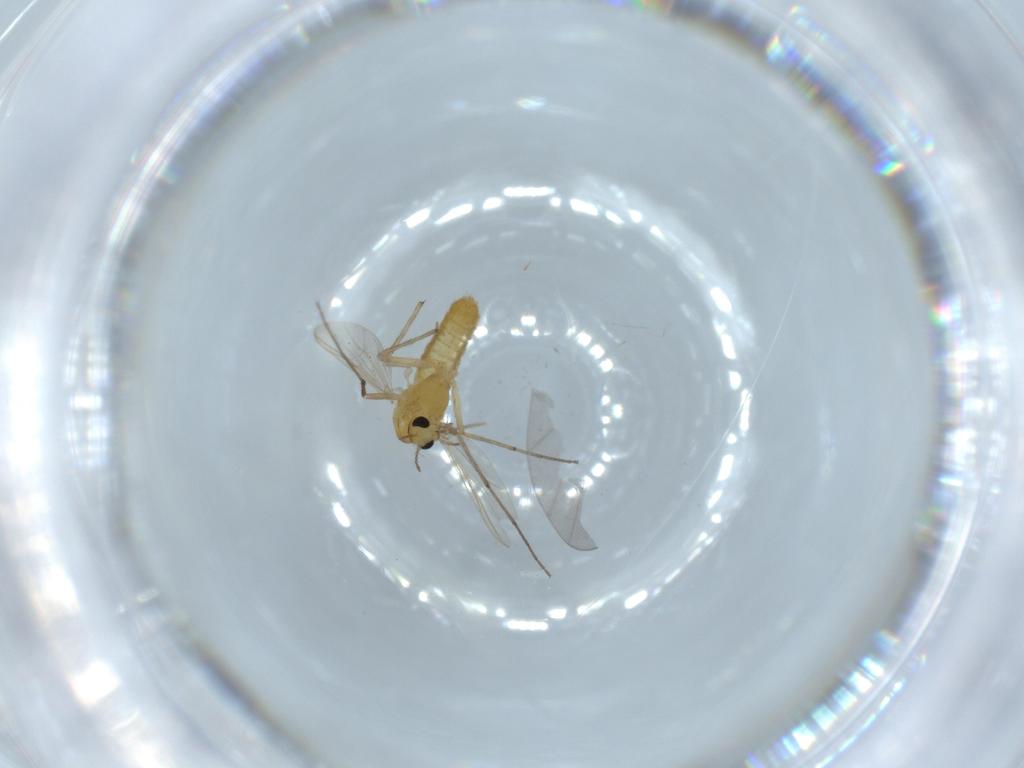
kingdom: Animalia
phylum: Arthropoda
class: Insecta
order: Diptera
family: Chironomidae
